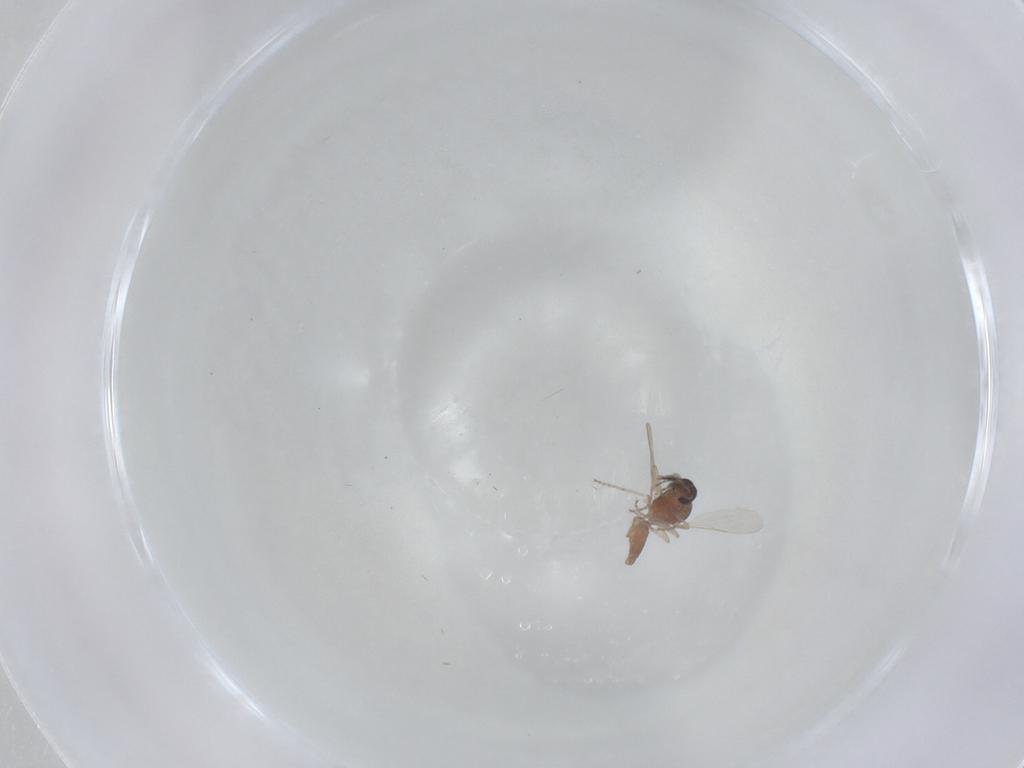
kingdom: Animalia
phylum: Arthropoda
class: Insecta
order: Diptera
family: Ceratopogonidae
